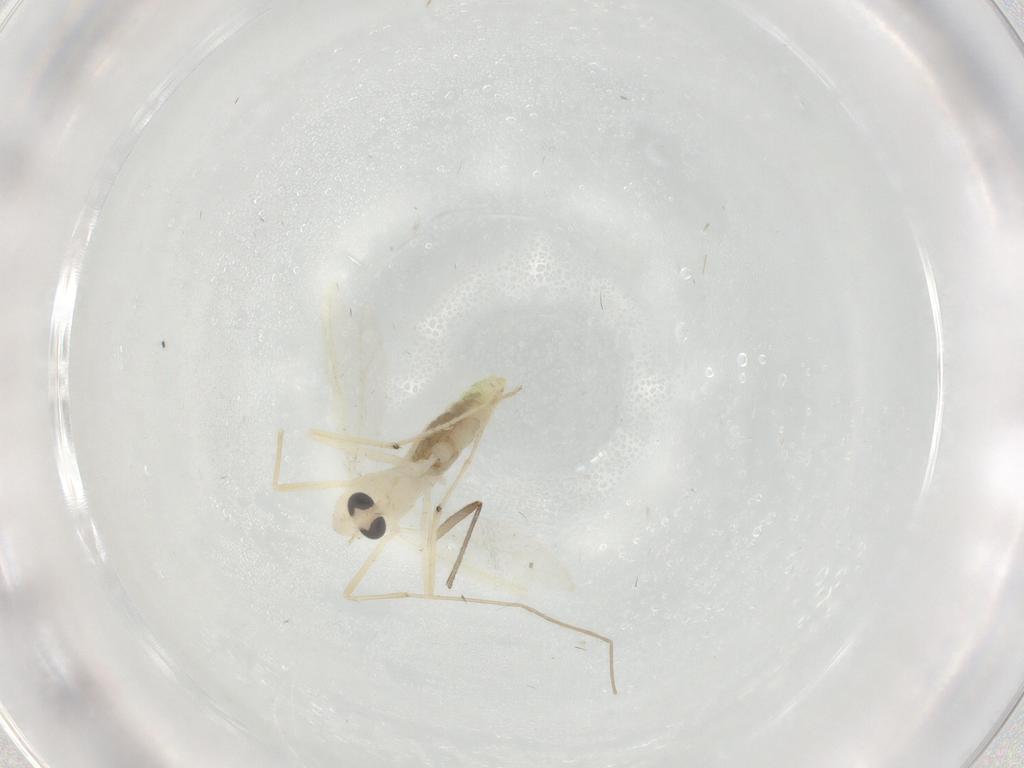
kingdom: Animalia
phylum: Arthropoda
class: Insecta
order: Diptera
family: Chironomidae
